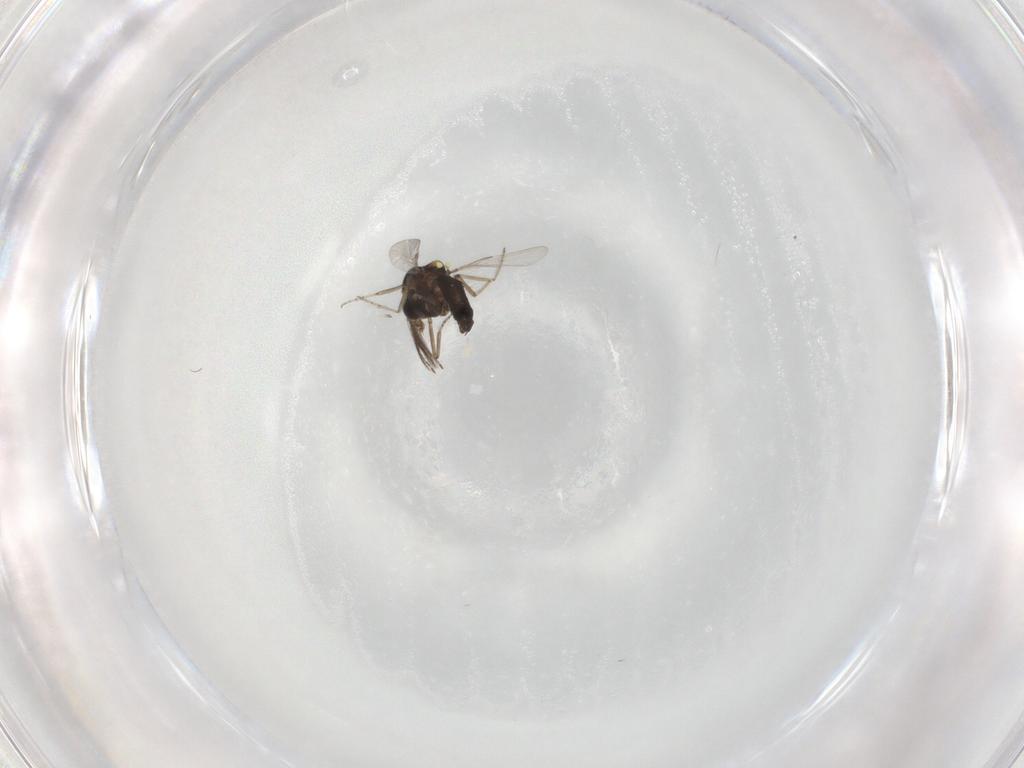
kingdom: Animalia
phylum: Arthropoda
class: Insecta
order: Diptera
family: Ceratopogonidae
